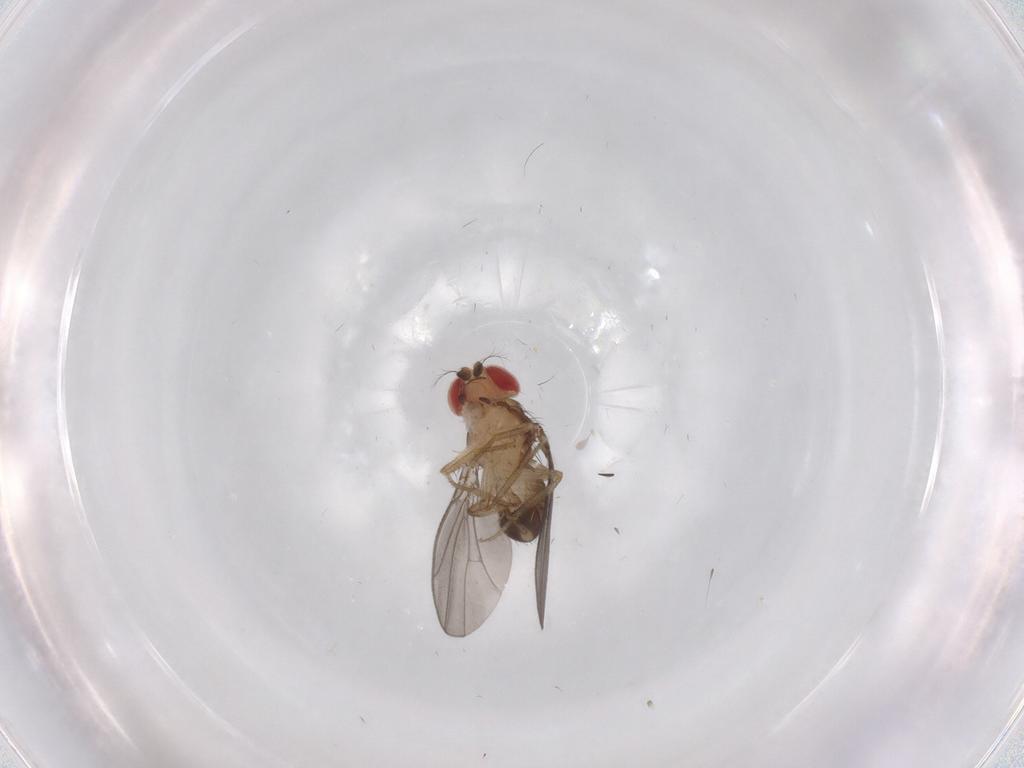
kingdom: Animalia
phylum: Arthropoda
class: Insecta
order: Diptera
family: Drosophilidae
